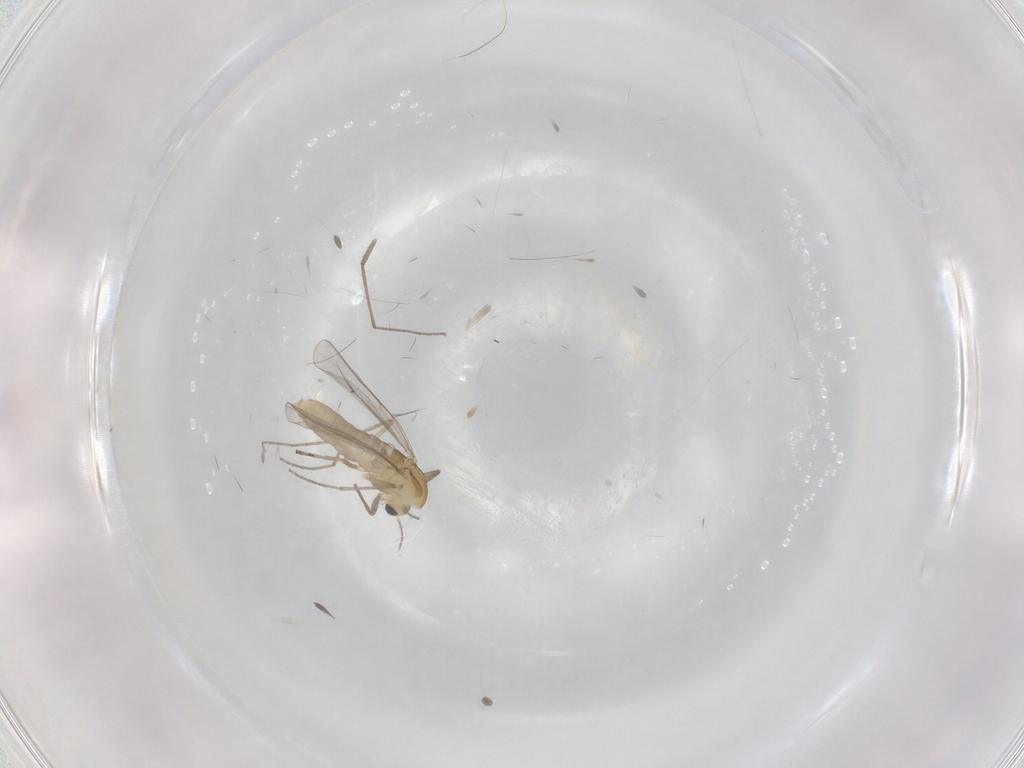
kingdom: Animalia
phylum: Arthropoda
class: Insecta
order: Diptera
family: Chironomidae
